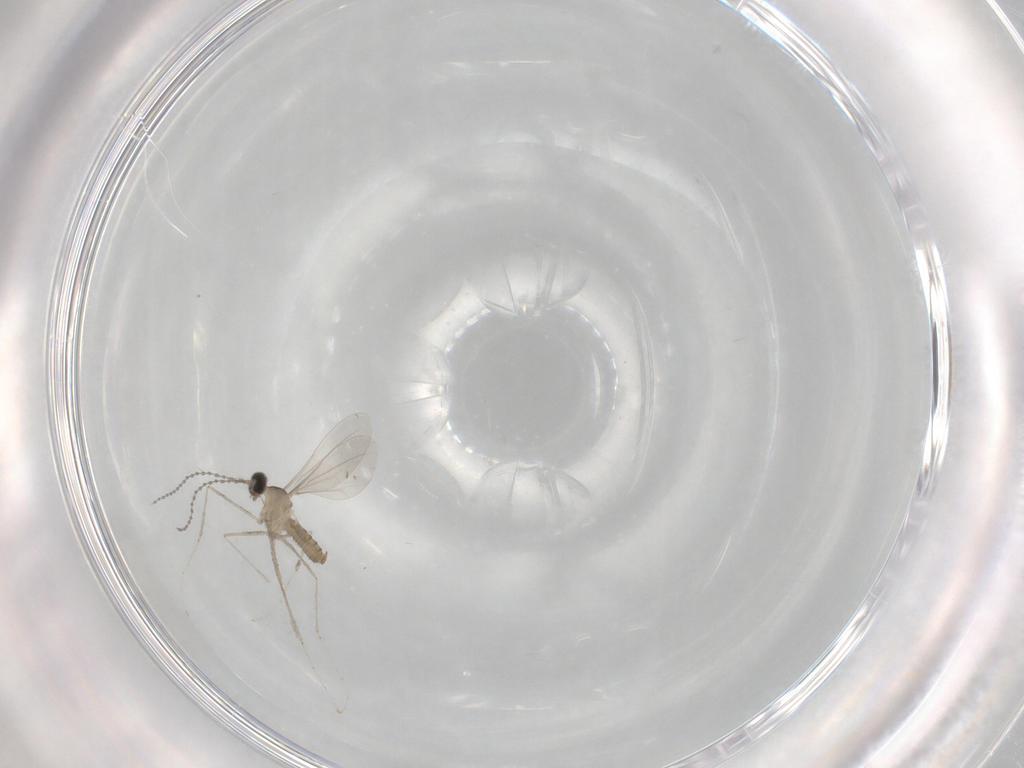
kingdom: Animalia
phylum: Arthropoda
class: Insecta
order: Diptera
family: Cecidomyiidae
